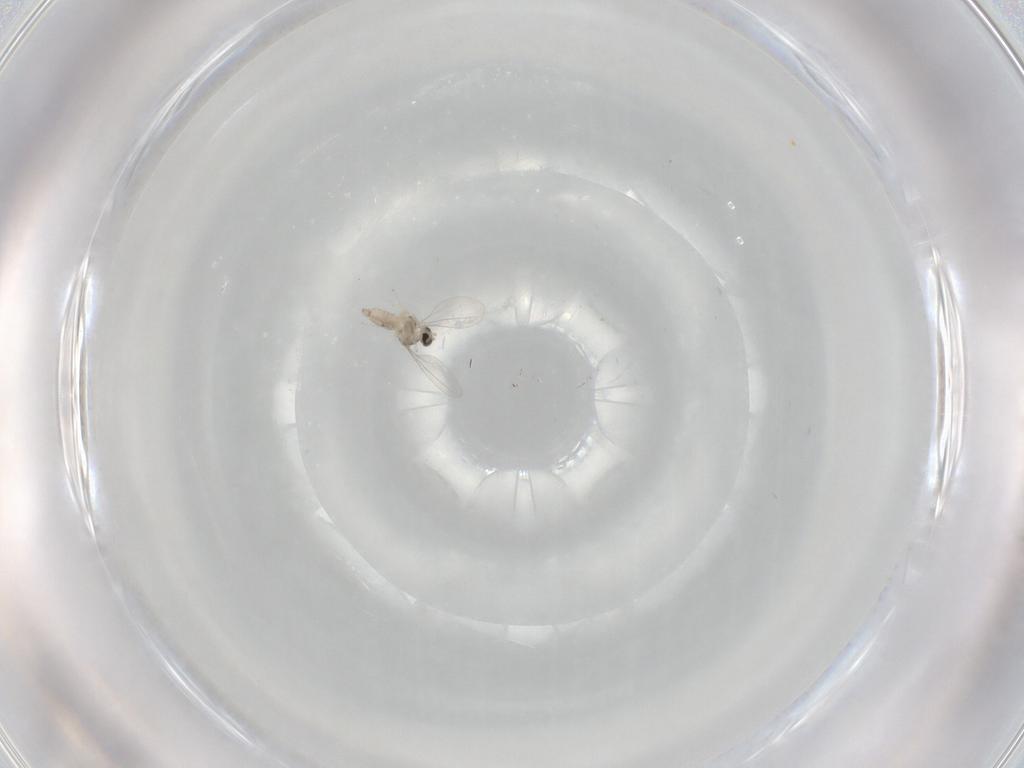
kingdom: Animalia
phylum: Arthropoda
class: Insecta
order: Diptera
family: Cecidomyiidae
